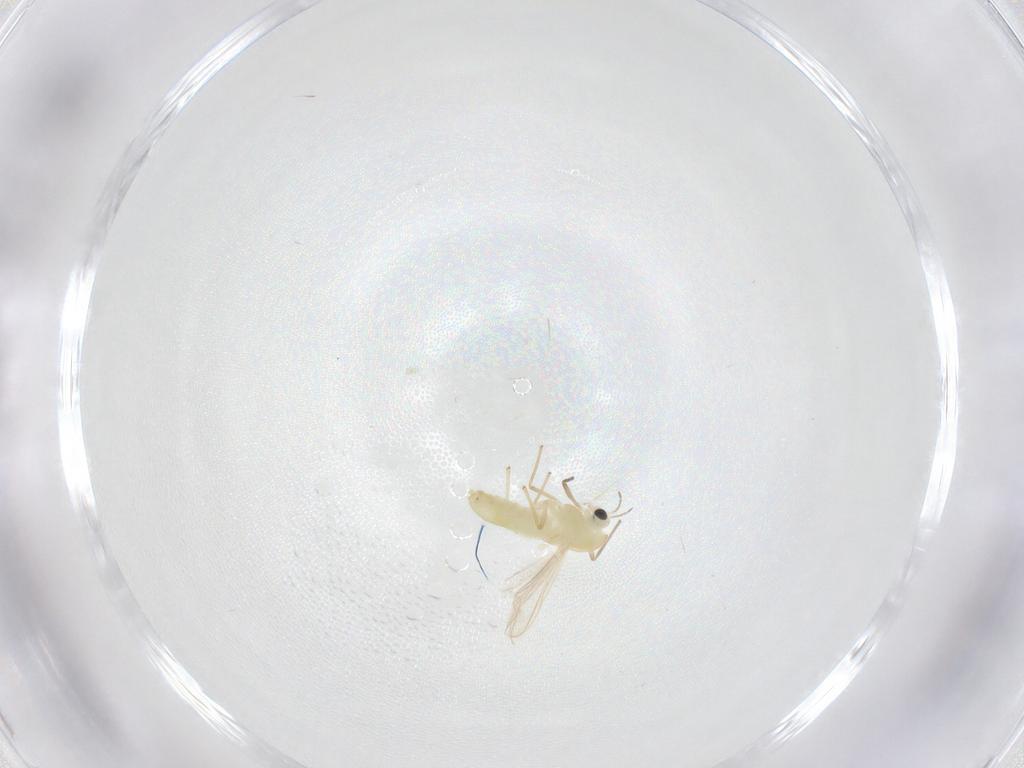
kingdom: Animalia
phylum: Arthropoda
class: Insecta
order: Diptera
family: Chironomidae
